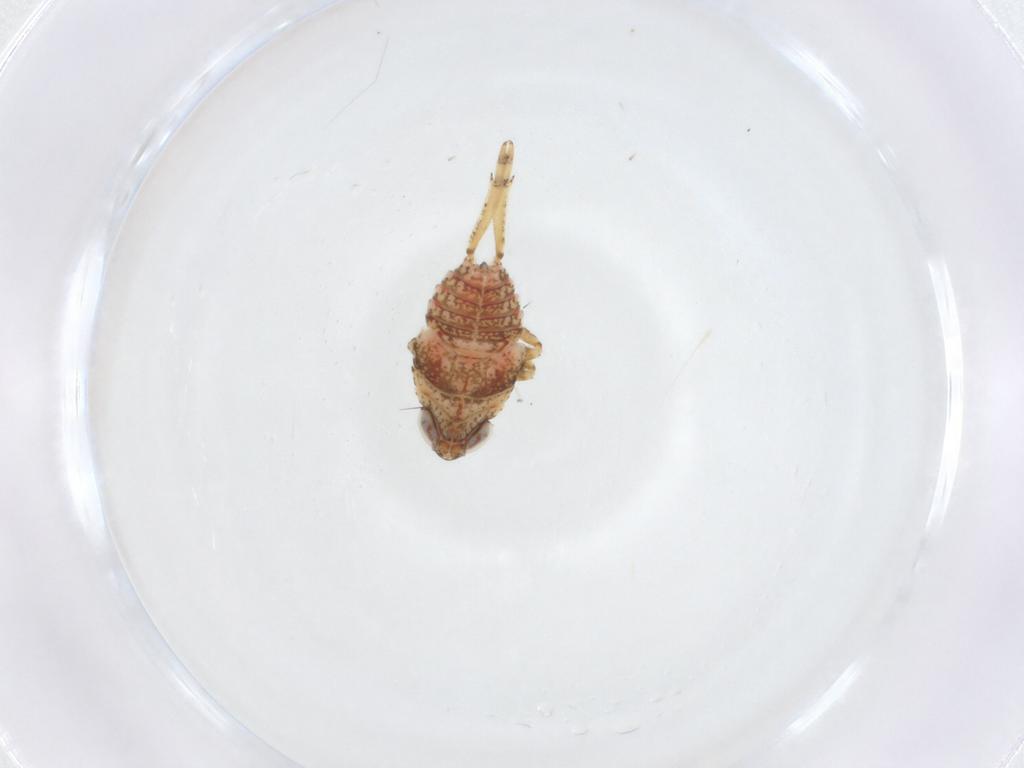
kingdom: Animalia
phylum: Arthropoda
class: Insecta
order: Hemiptera
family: Issidae
